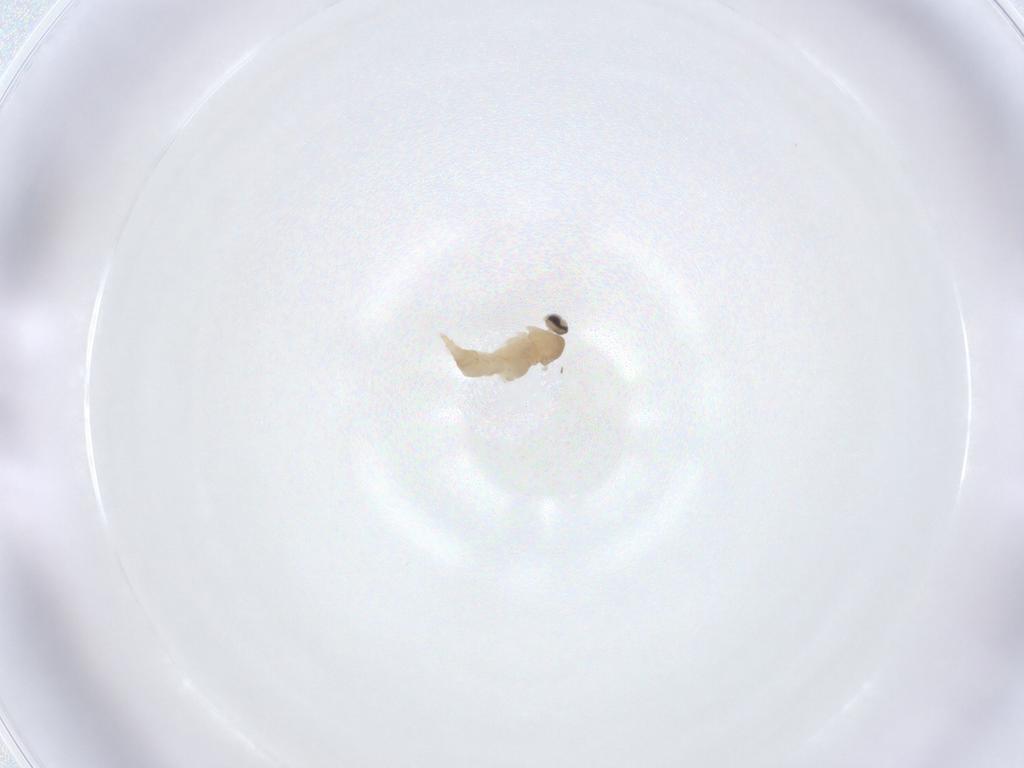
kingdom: Animalia
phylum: Arthropoda
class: Insecta
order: Diptera
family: Cecidomyiidae
